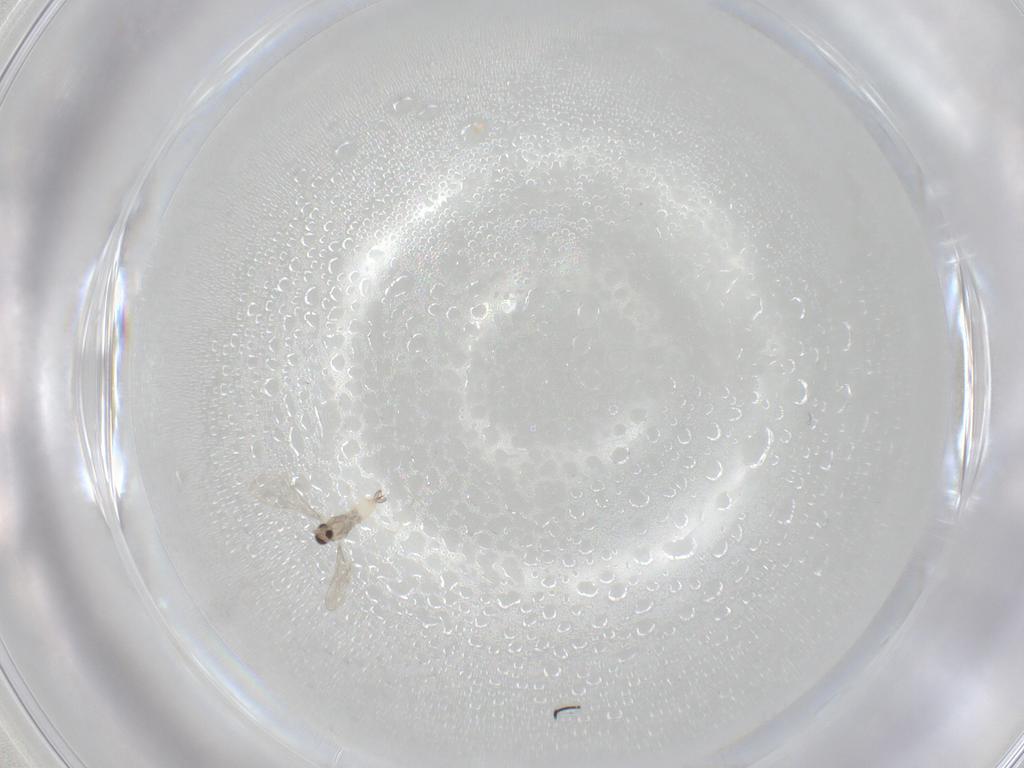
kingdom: Animalia
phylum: Arthropoda
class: Insecta
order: Diptera
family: Cecidomyiidae
